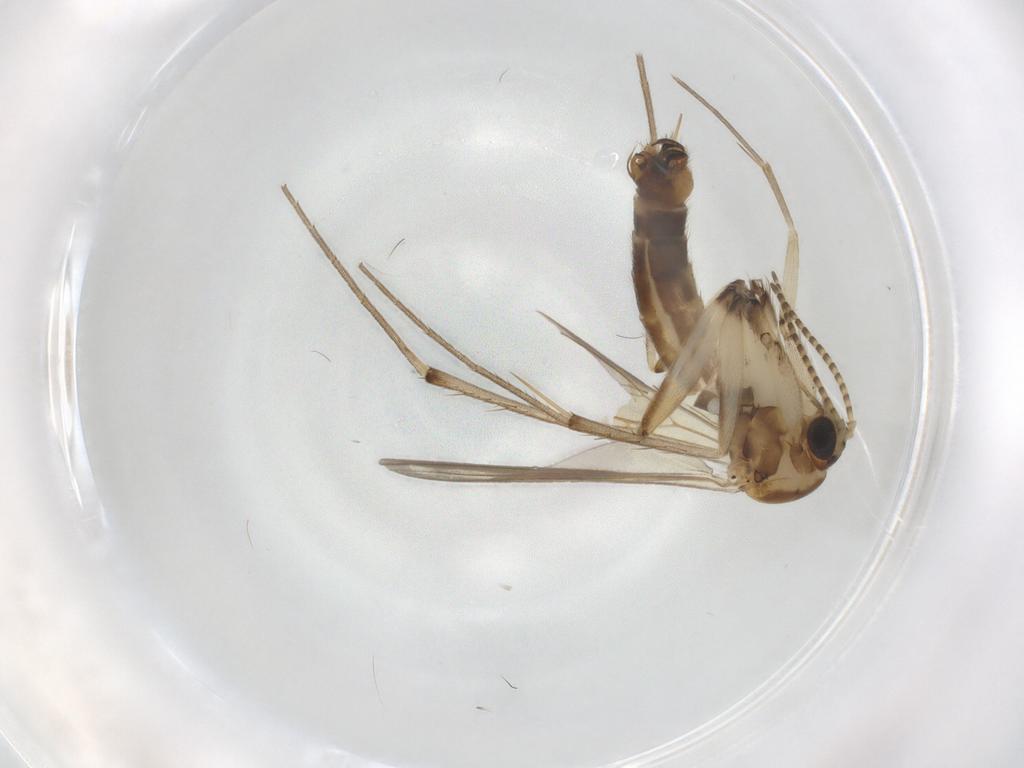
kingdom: Animalia
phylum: Arthropoda
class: Insecta
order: Diptera
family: Mycetophilidae
